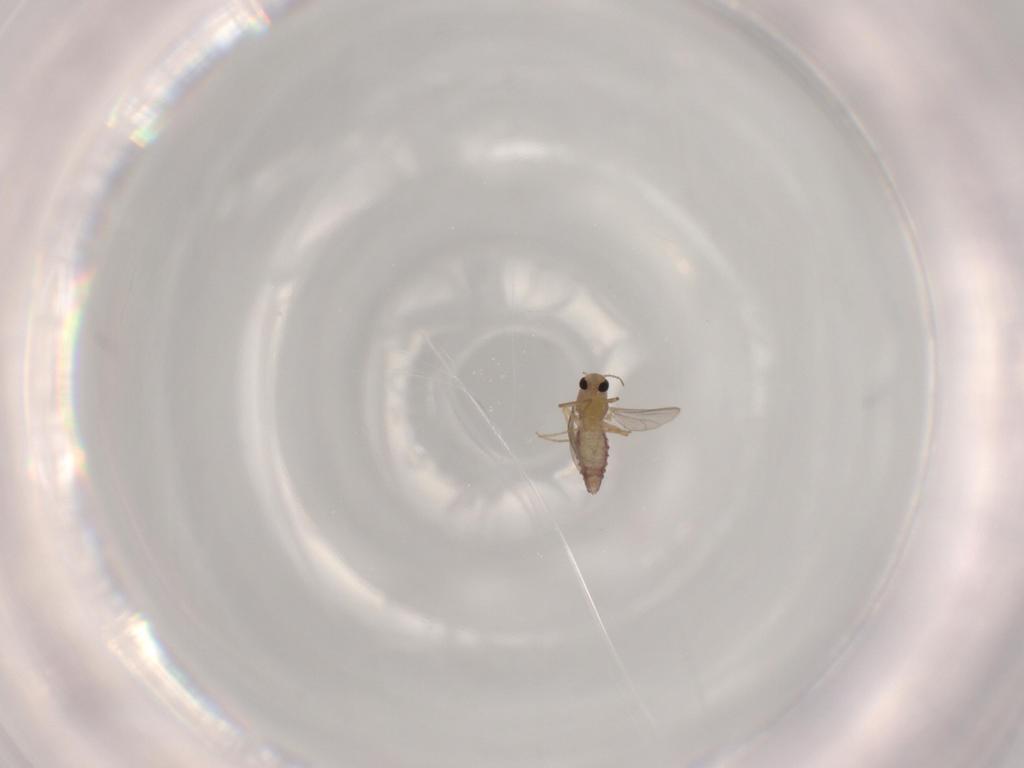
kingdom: Animalia
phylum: Arthropoda
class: Insecta
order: Diptera
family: Chironomidae
